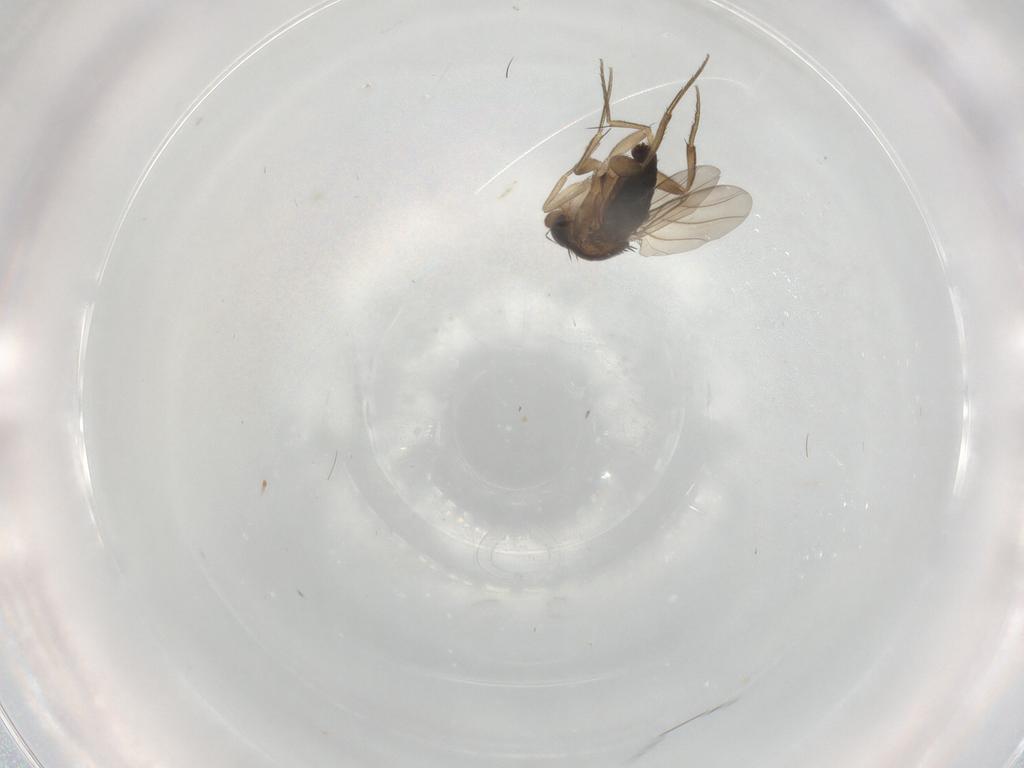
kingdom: Animalia
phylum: Arthropoda
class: Insecta
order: Diptera
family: Phoridae
